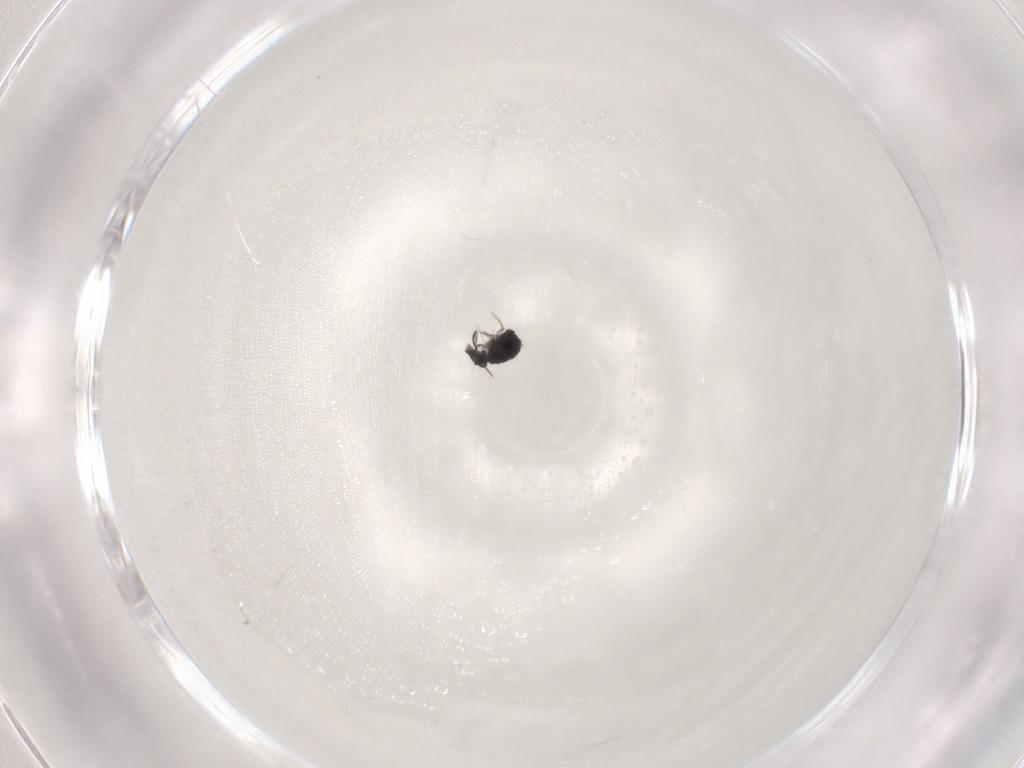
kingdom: Animalia
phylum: Arthropoda
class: Collembola
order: Symphypleona
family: Katiannidae
